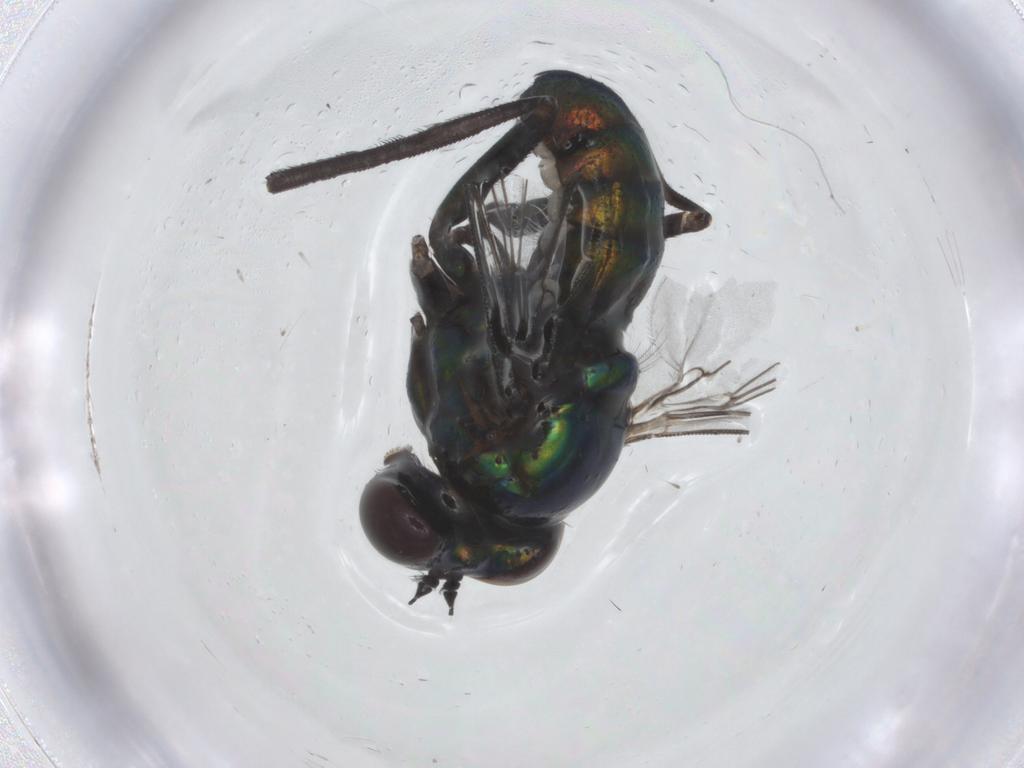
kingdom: Animalia
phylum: Arthropoda
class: Insecta
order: Diptera
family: Dolichopodidae
